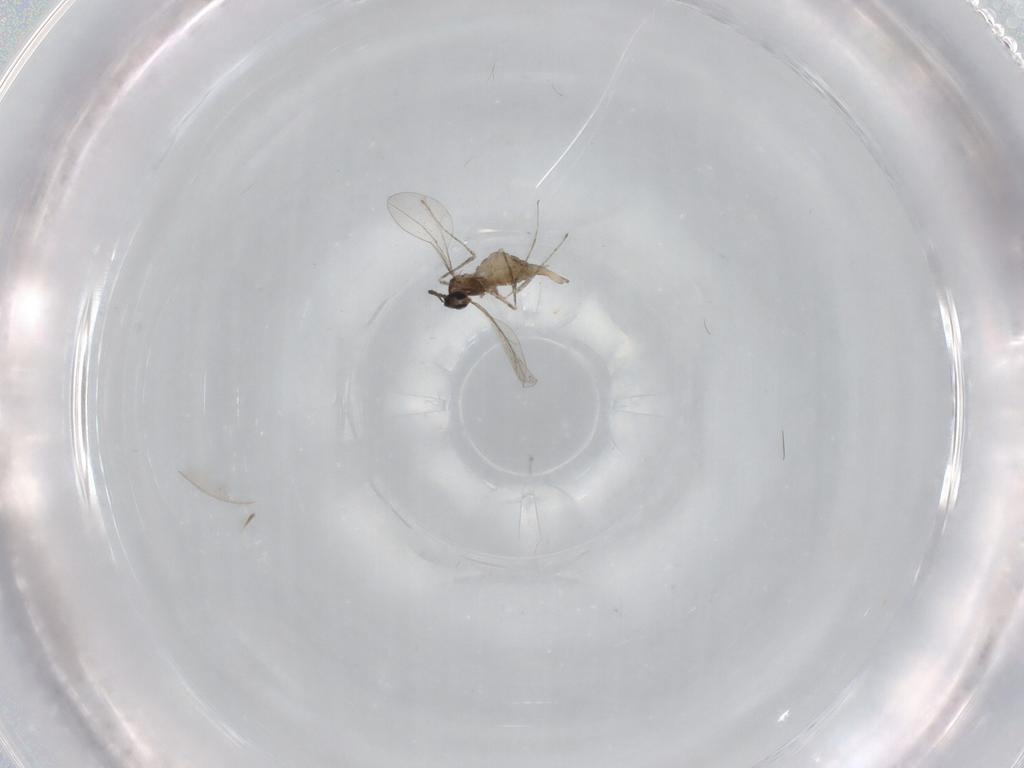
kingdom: Animalia
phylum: Arthropoda
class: Insecta
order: Diptera
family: Cecidomyiidae
